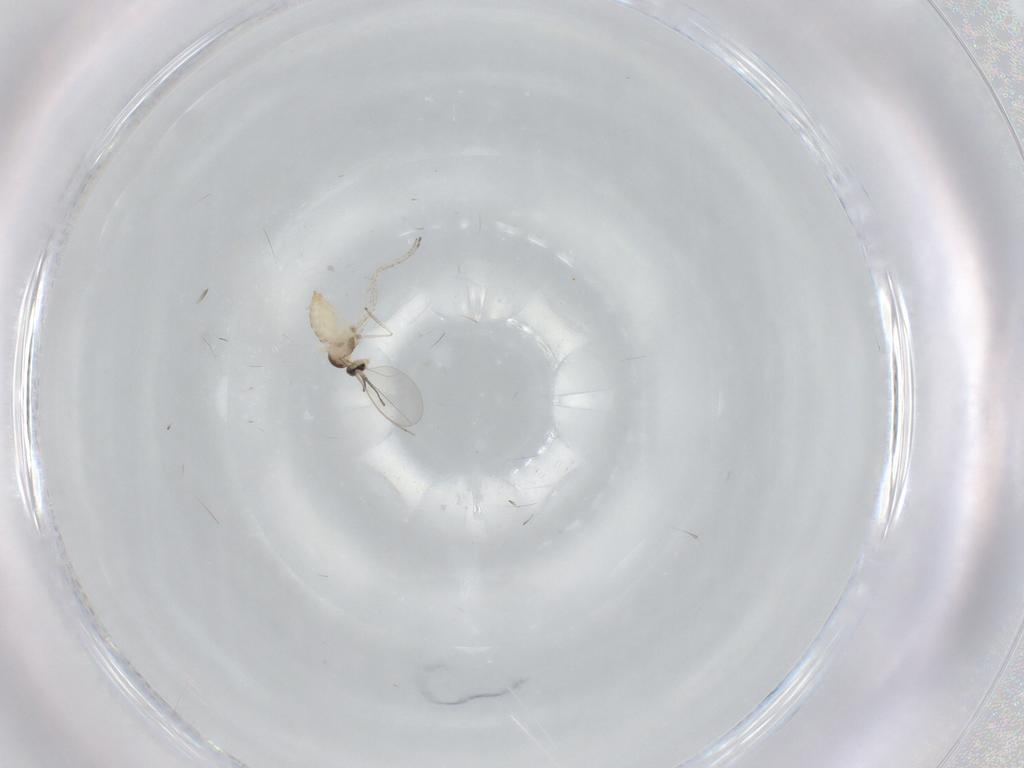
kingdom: Animalia
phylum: Arthropoda
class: Insecta
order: Diptera
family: Cecidomyiidae
